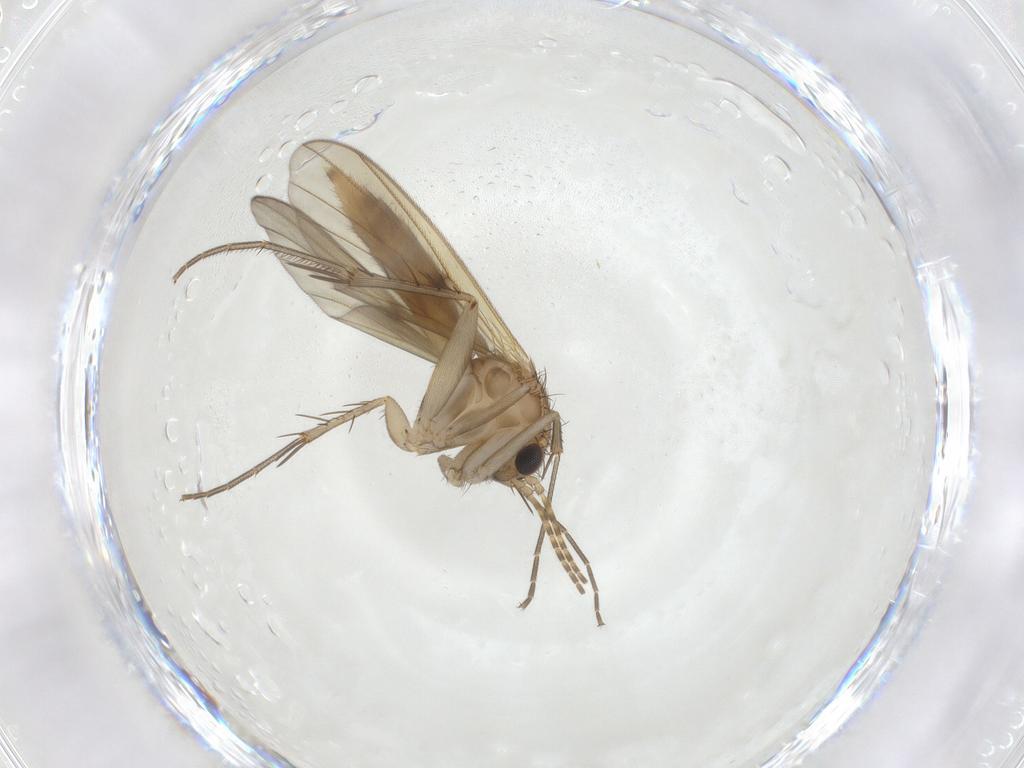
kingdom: Animalia
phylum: Arthropoda
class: Insecta
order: Diptera
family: Mycetophilidae
